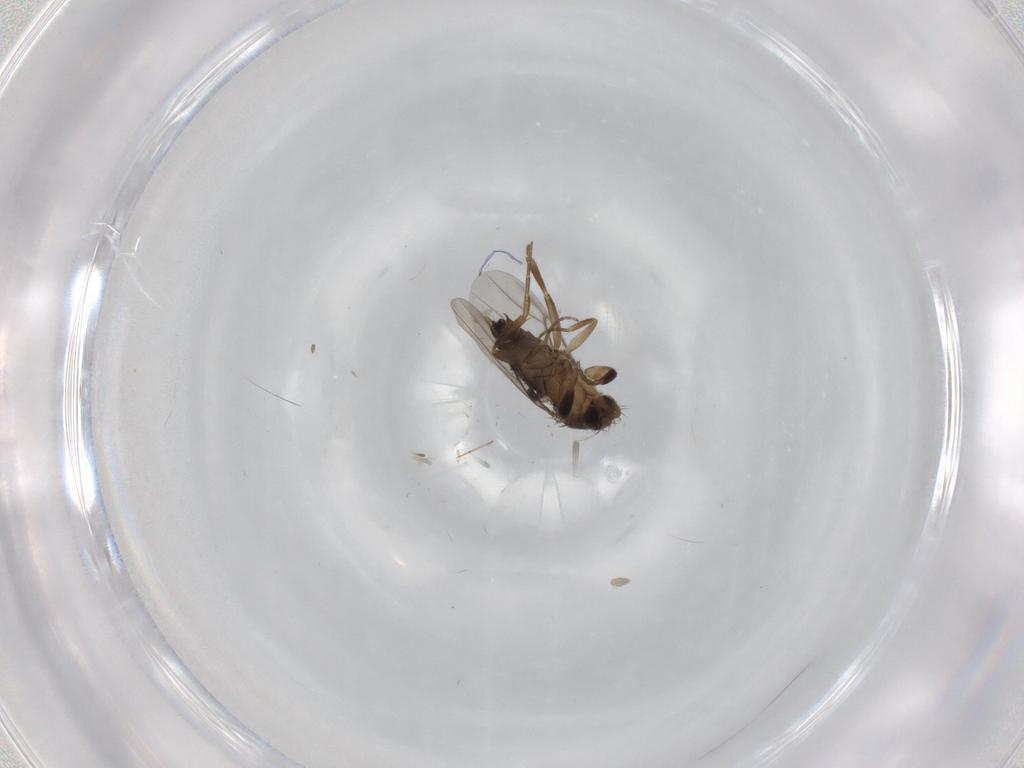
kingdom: Animalia
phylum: Arthropoda
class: Insecta
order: Diptera
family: Phoridae
